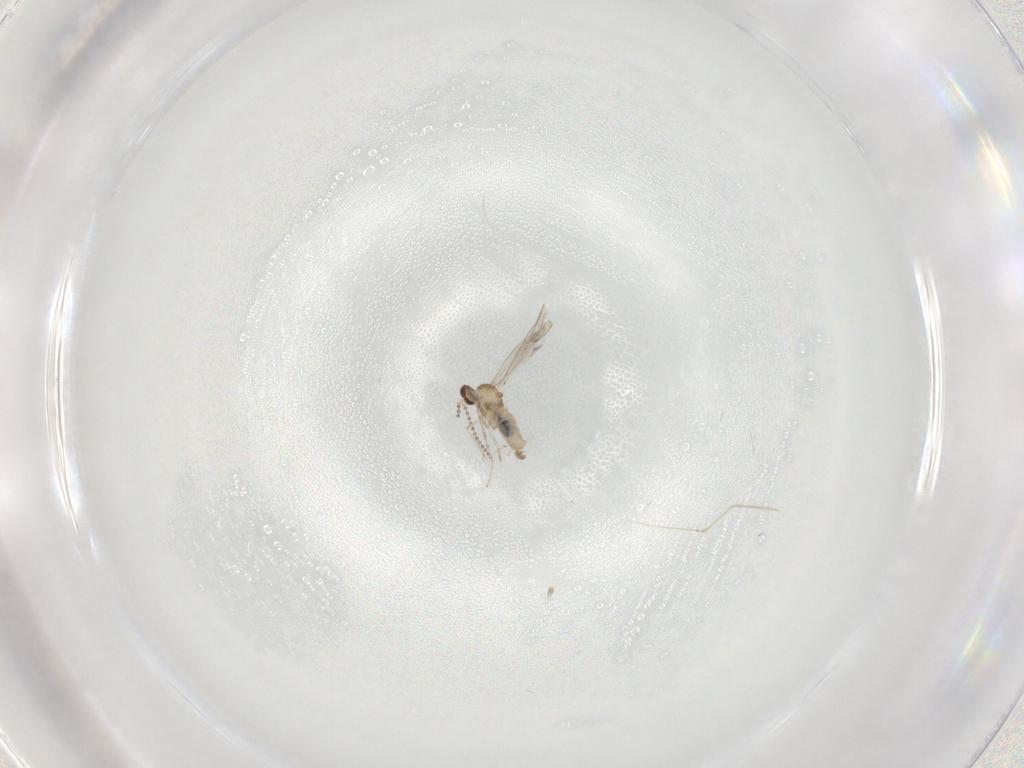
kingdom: Animalia
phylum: Arthropoda
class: Insecta
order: Diptera
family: Cecidomyiidae
